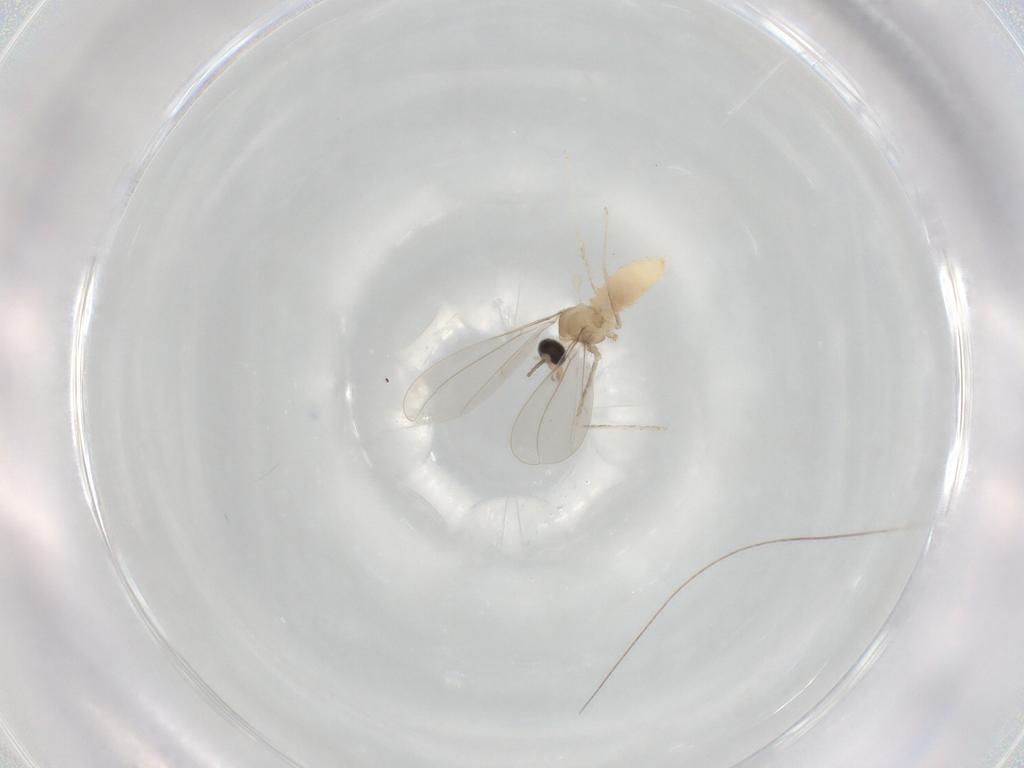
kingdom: Animalia
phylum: Arthropoda
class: Insecta
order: Diptera
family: Cecidomyiidae
